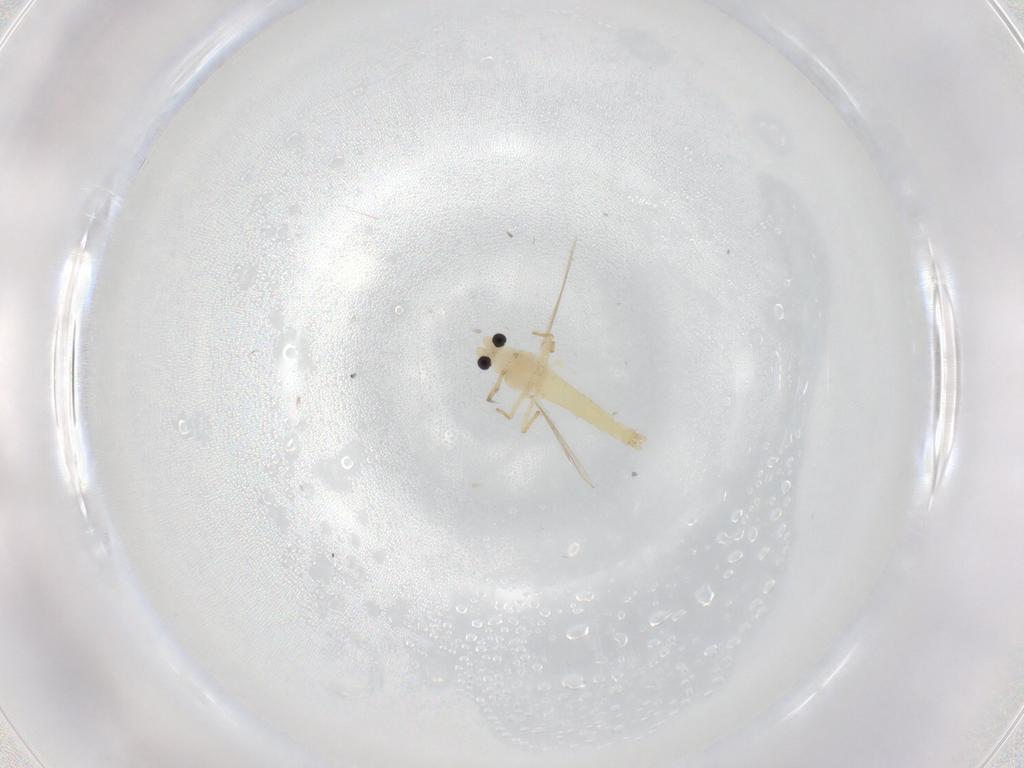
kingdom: Animalia
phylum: Arthropoda
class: Insecta
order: Diptera
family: Chironomidae
